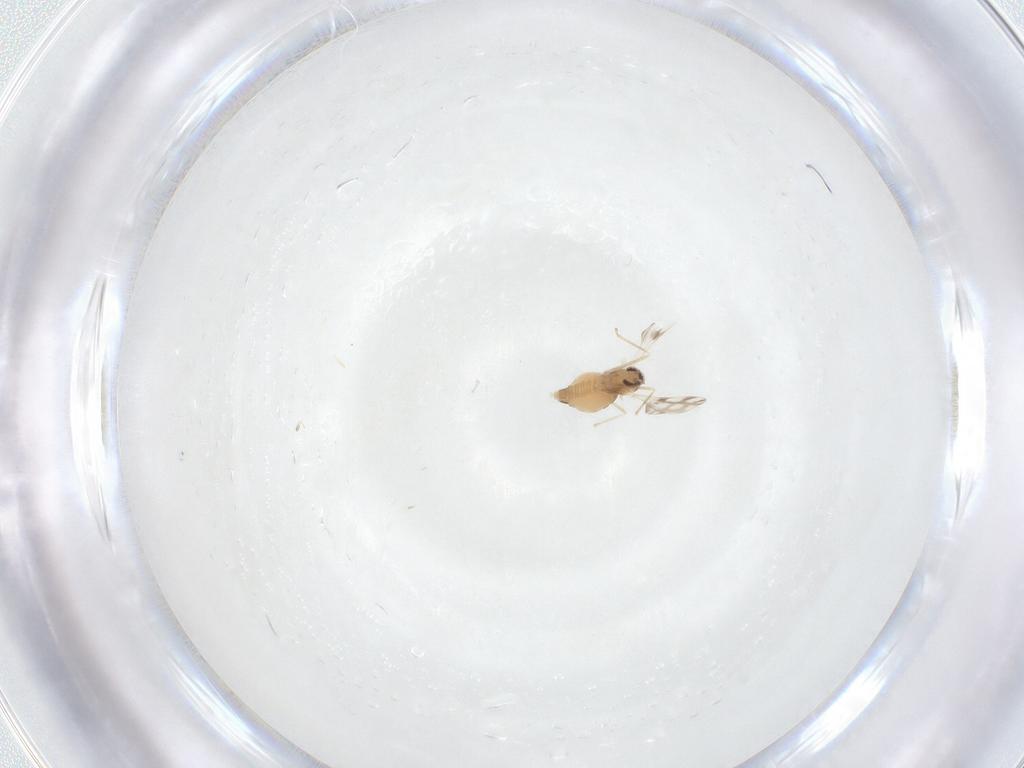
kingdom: Animalia
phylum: Arthropoda
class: Insecta
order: Diptera
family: Cecidomyiidae
